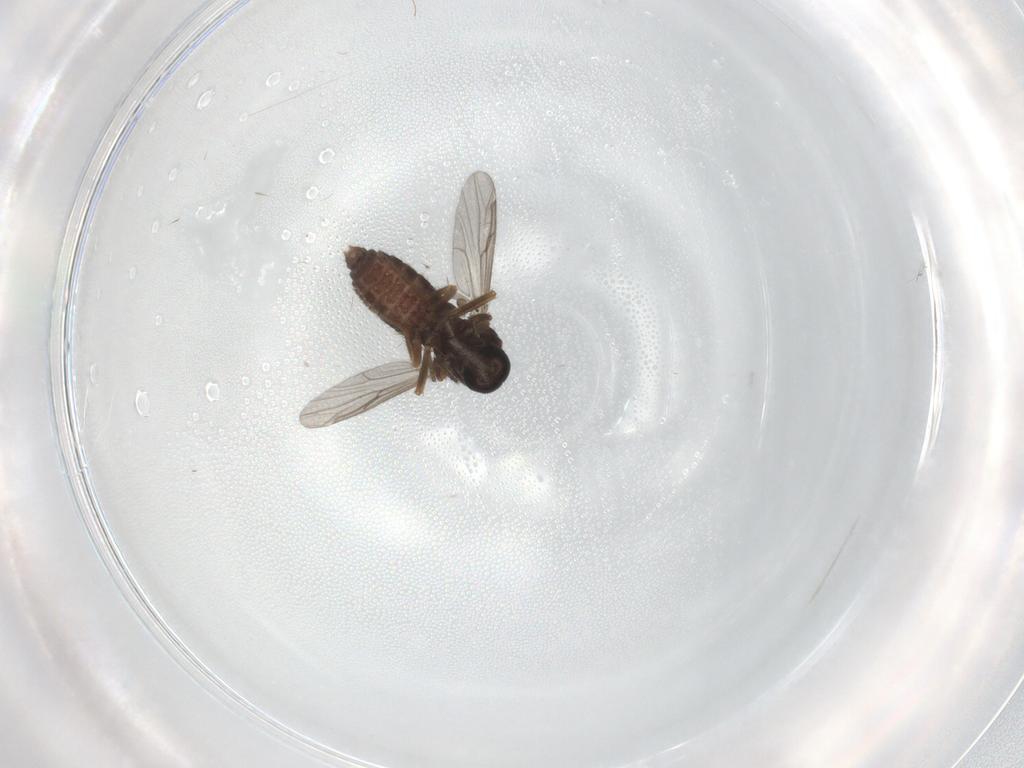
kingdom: Animalia
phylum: Arthropoda
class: Insecta
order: Diptera
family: Ceratopogonidae
